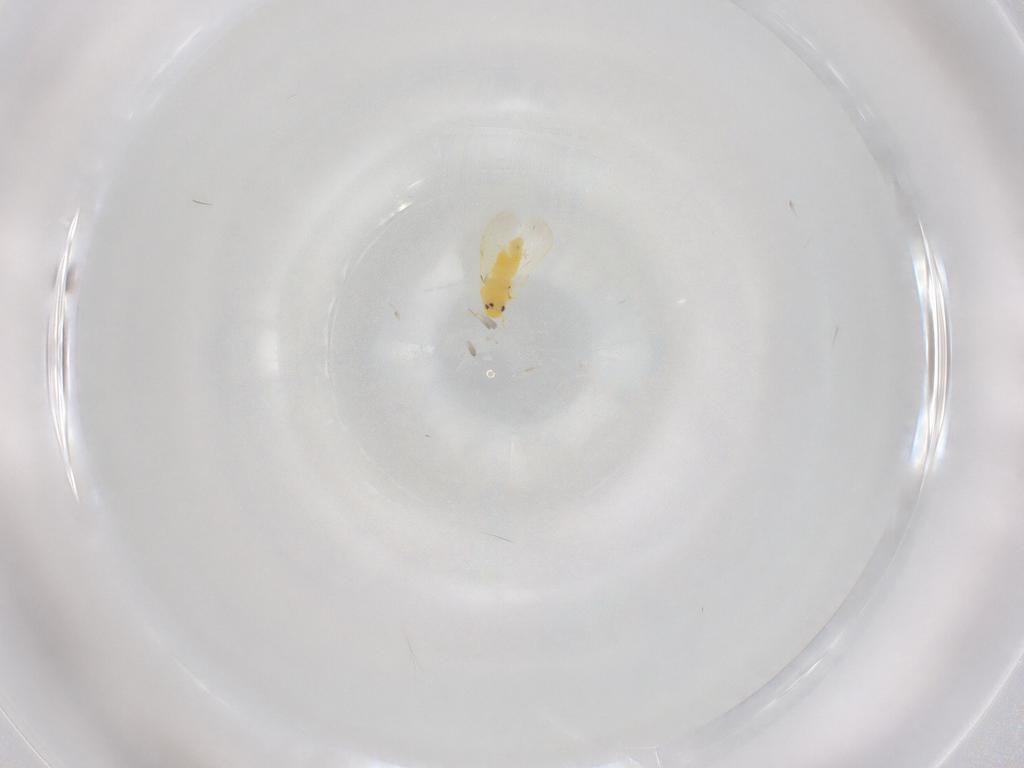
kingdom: Animalia
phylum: Arthropoda
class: Insecta
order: Hemiptera
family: Aleyrodidae
